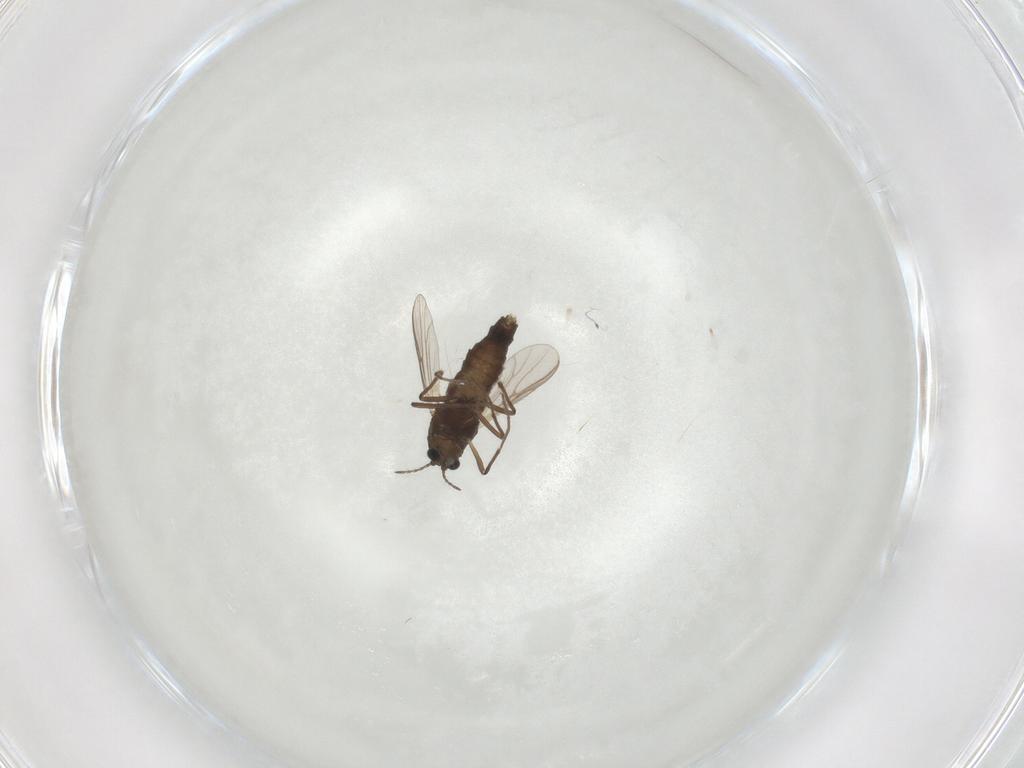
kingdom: Animalia
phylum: Arthropoda
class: Insecta
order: Diptera
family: Chironomidae
